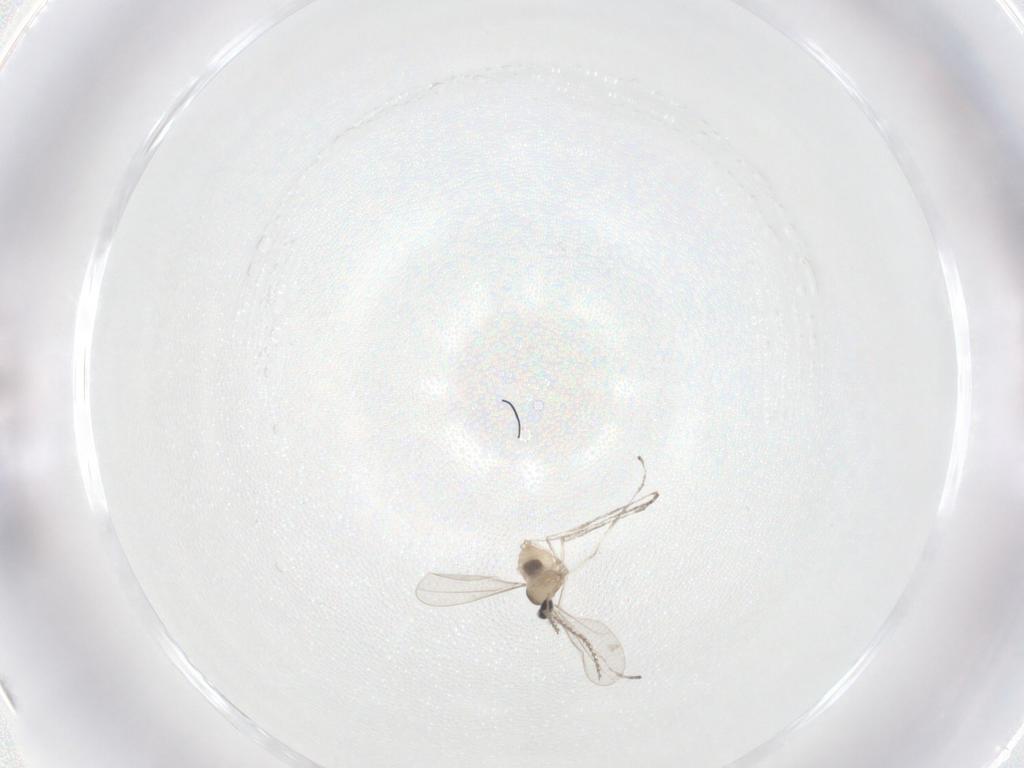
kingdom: Animalia
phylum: Arthropoda
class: Insecta
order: Diptera
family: Cecidomyiidae
